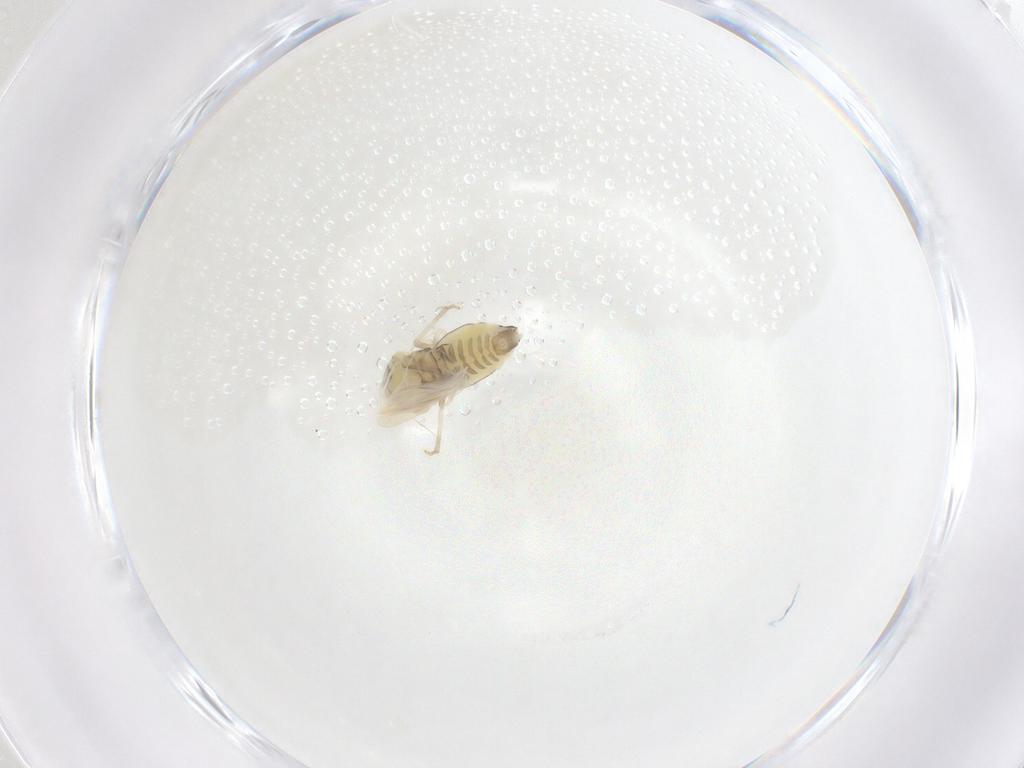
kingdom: Animalia
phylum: Arthropoda
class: Insecta
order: Hemiptera
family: Aleyrodidae
